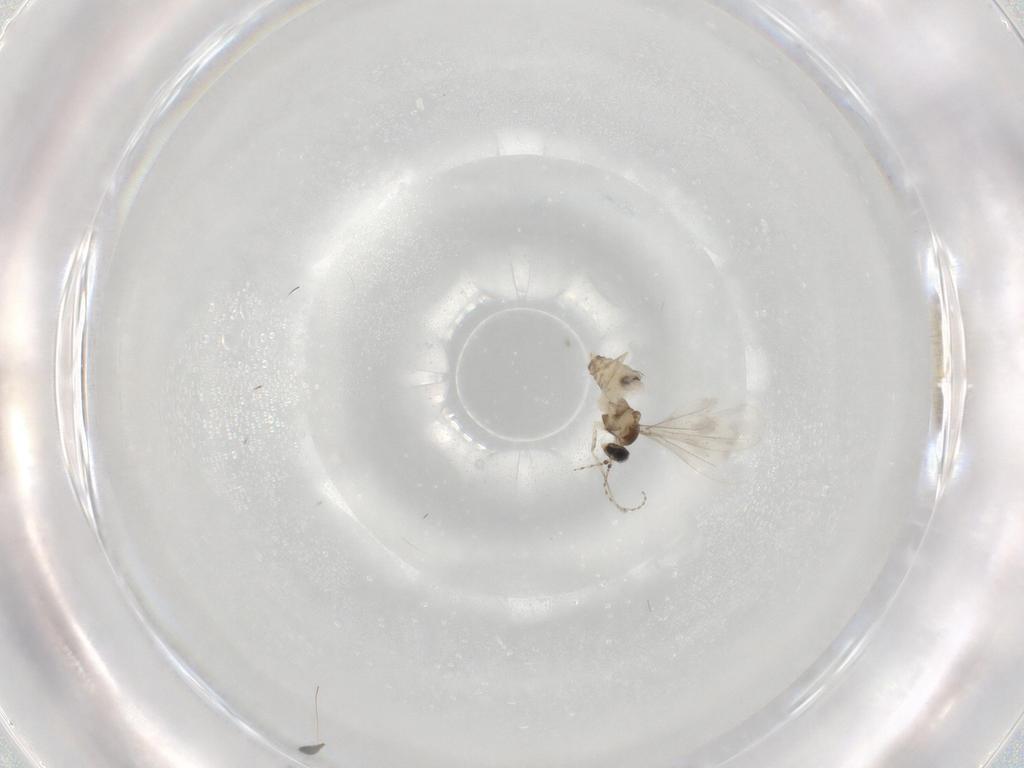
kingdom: Animalia
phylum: Arthropoda
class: Insecta
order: Diptera
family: Cecidomyiidae
